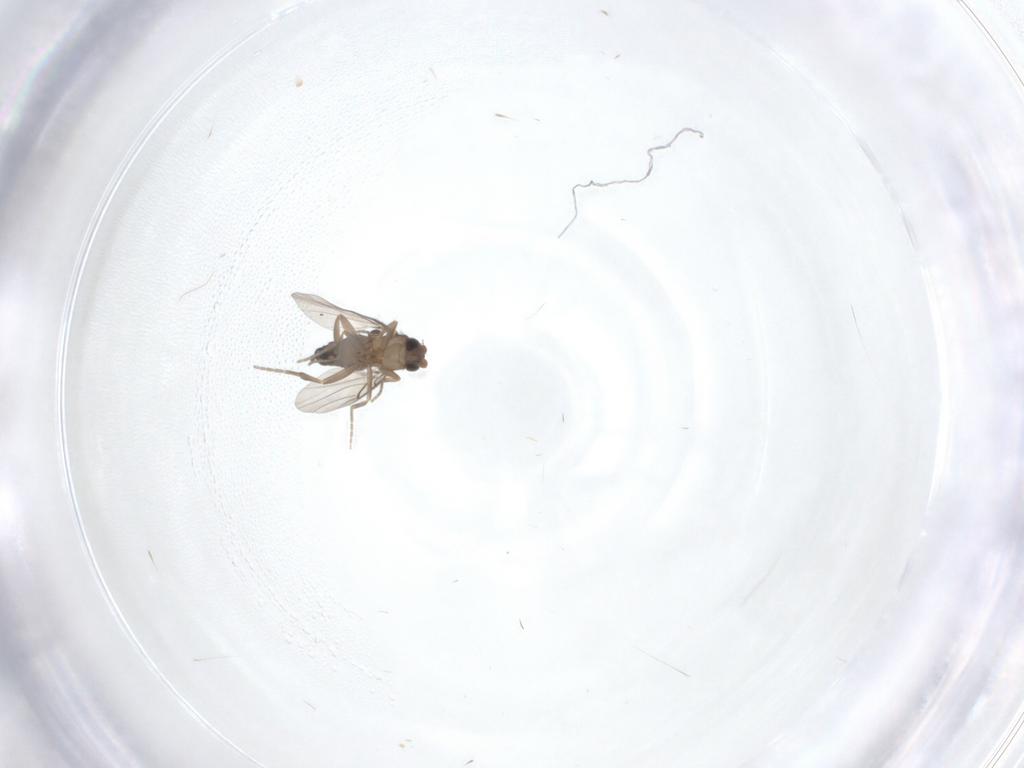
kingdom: Animalia
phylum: Arthropoda
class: Insecta
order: Diptera
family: Phoridae
